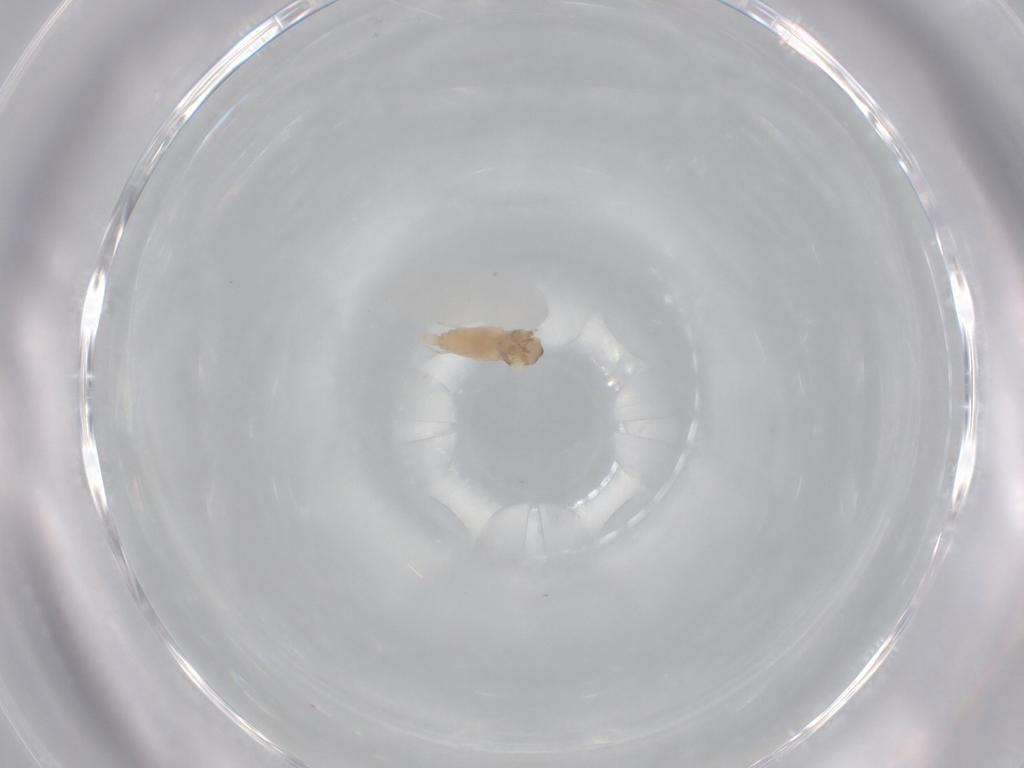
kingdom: Animalia
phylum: Arthropoda
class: Insecta
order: Diptera
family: Cecidomyiidae
